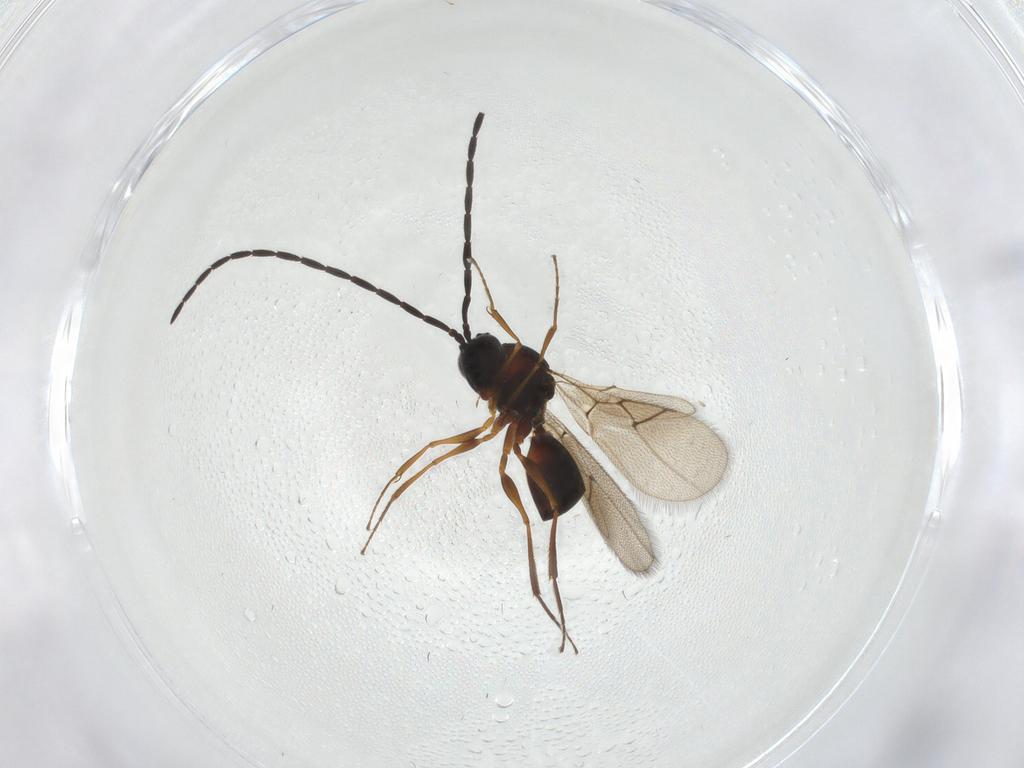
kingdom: Animalia
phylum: Arthropoda
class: Insecta
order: Hymenoptera
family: Figitidae
